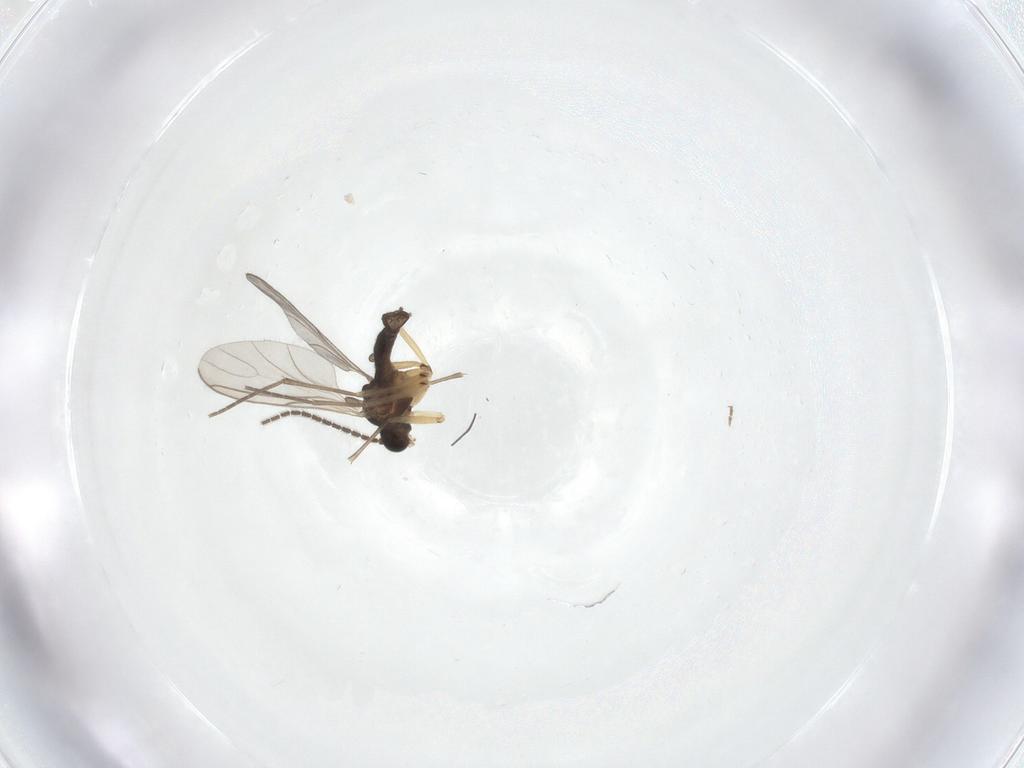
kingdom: Animalia
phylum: Arthropoda
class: Insecta
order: Diptera
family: Sciaridae
